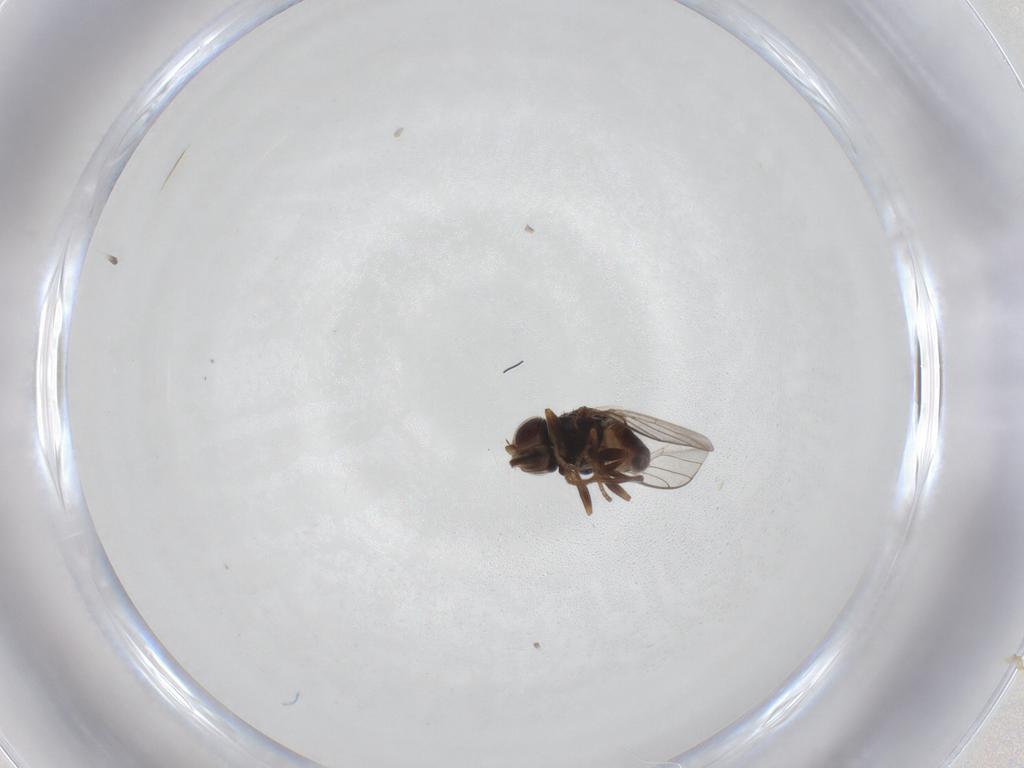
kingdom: Animalia
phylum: Arthropoda
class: Insecta
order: Diptera
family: Chloropidae
